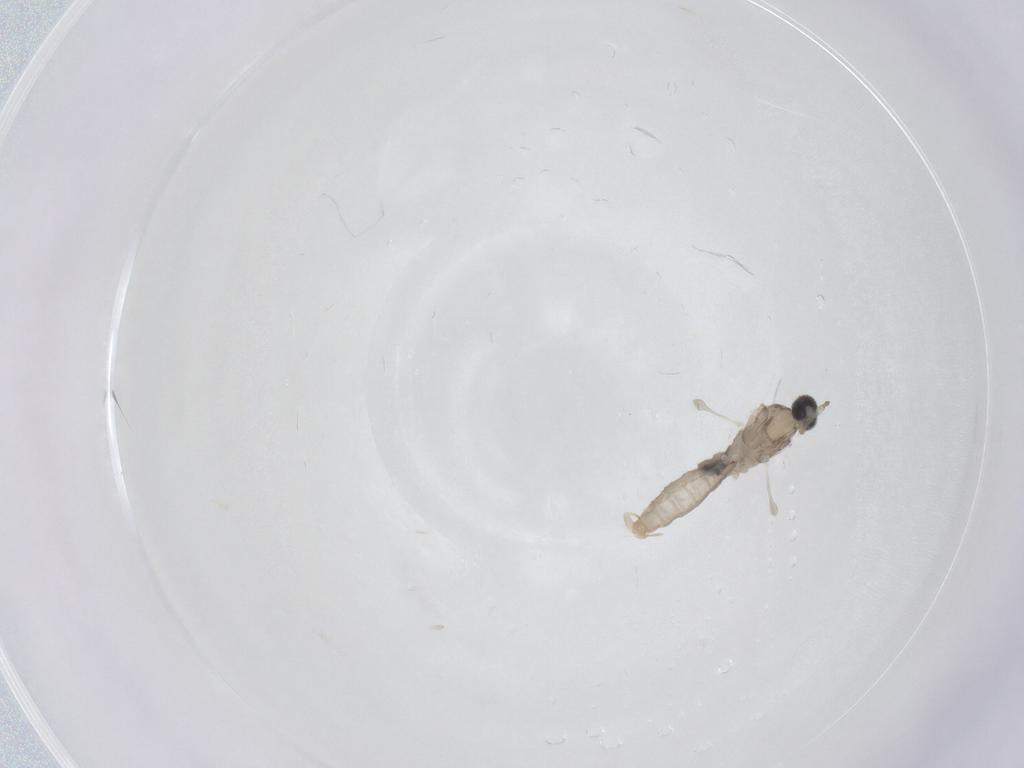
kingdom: Animalia
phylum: Arthropoda
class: Insecta
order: Diptera
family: Cecidomyiidae
